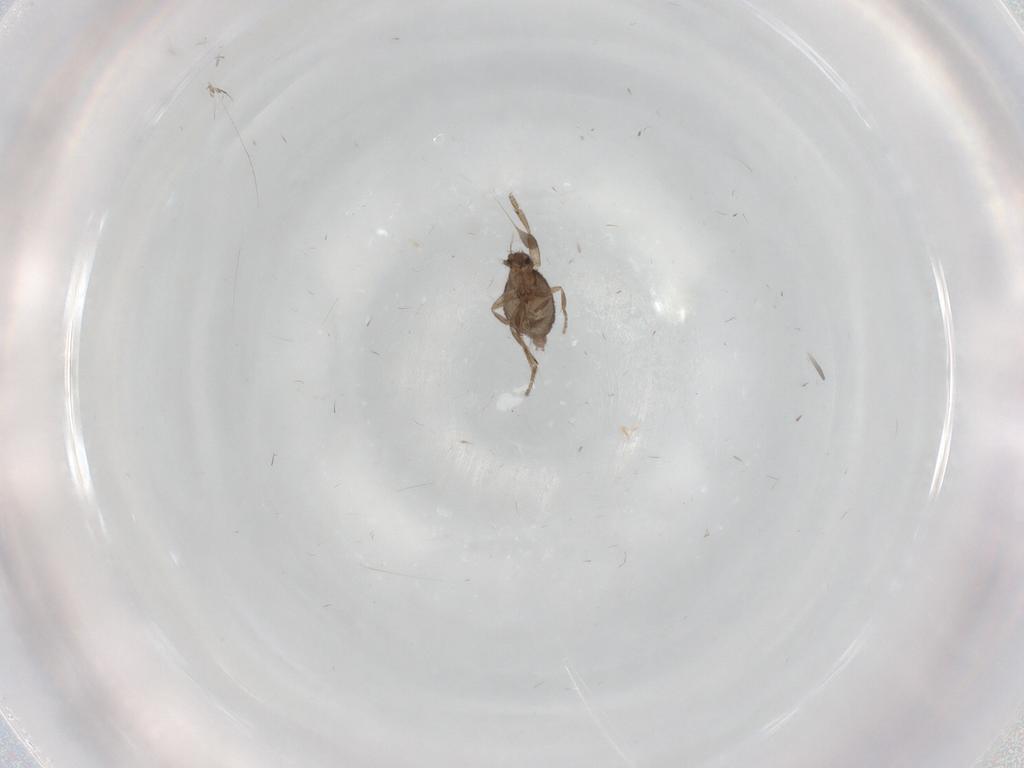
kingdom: Animalia
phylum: Arthropoda
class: Insecta
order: Diptera
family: Phoridae
